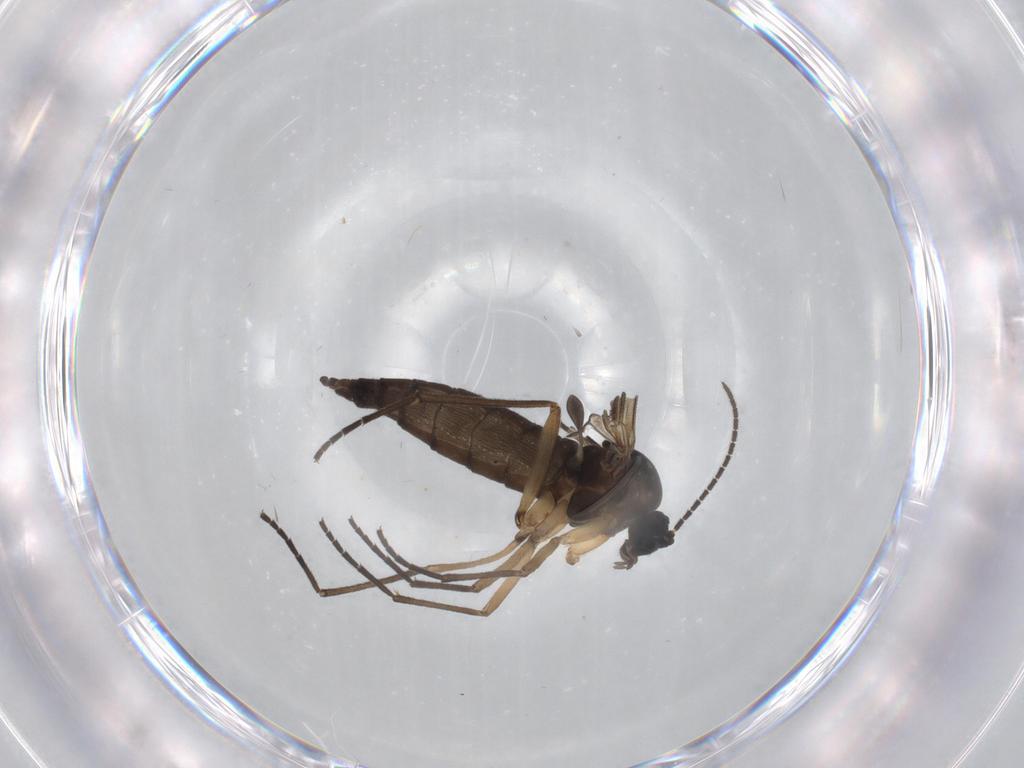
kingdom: Animalia
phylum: Arthropoda
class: Insecta
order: Diptera
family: Sciaridae
